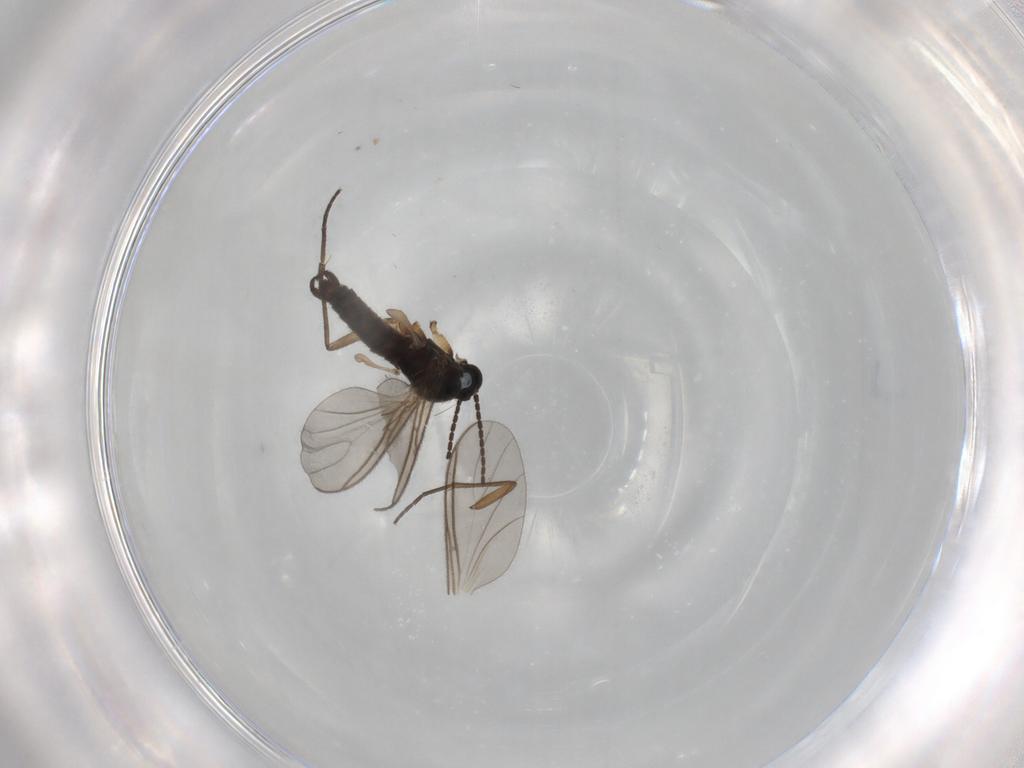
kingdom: Animalia
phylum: Arthropoda
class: Insecta
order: Diptera
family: Sciaridae
